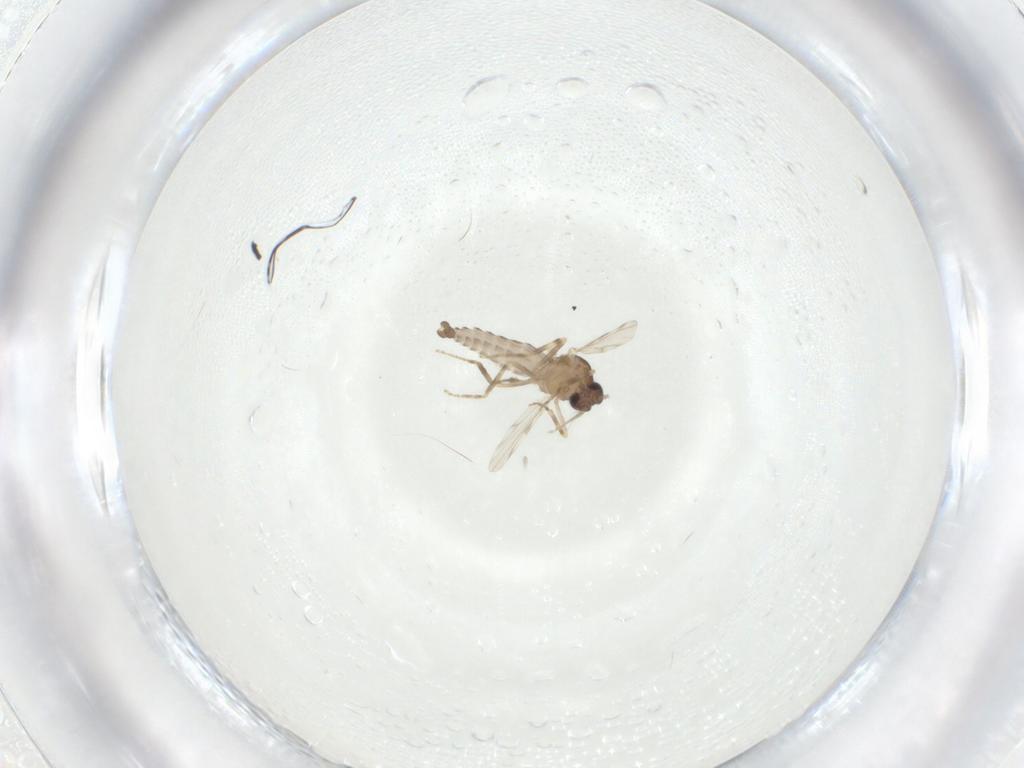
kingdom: Animalia
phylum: Arthropoda
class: Insecta
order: Diptera
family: Ceratopogonidae
